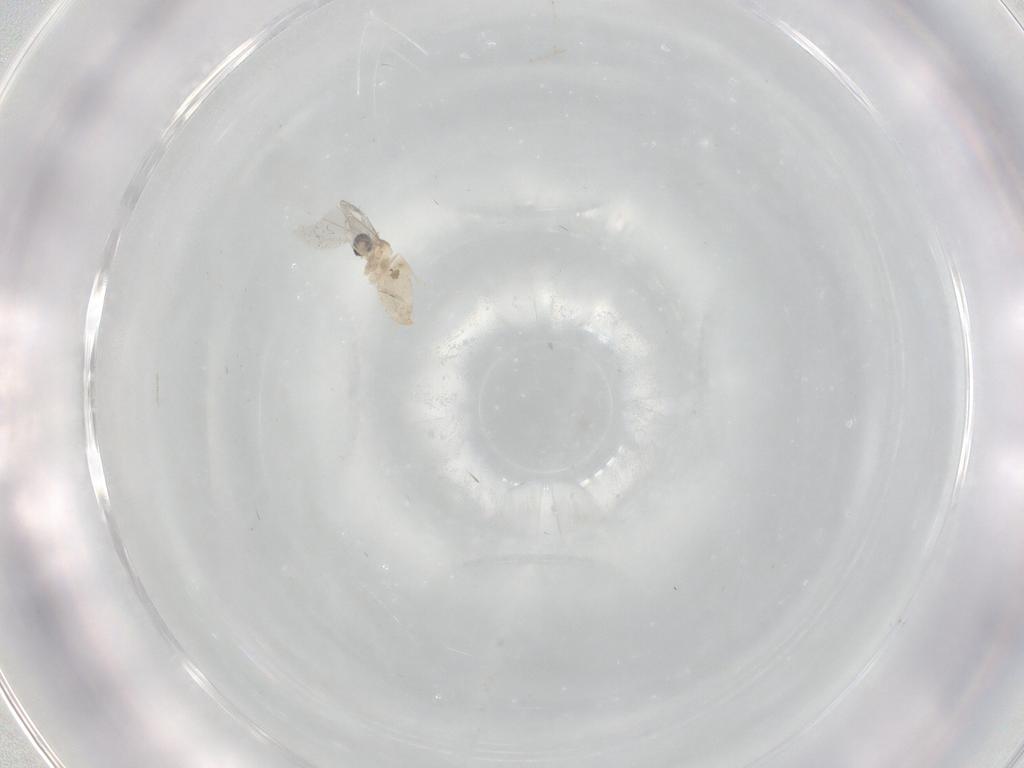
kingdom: Animalia
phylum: Arthropoda
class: Insecta
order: Diptera
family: Cecidomyiidae
